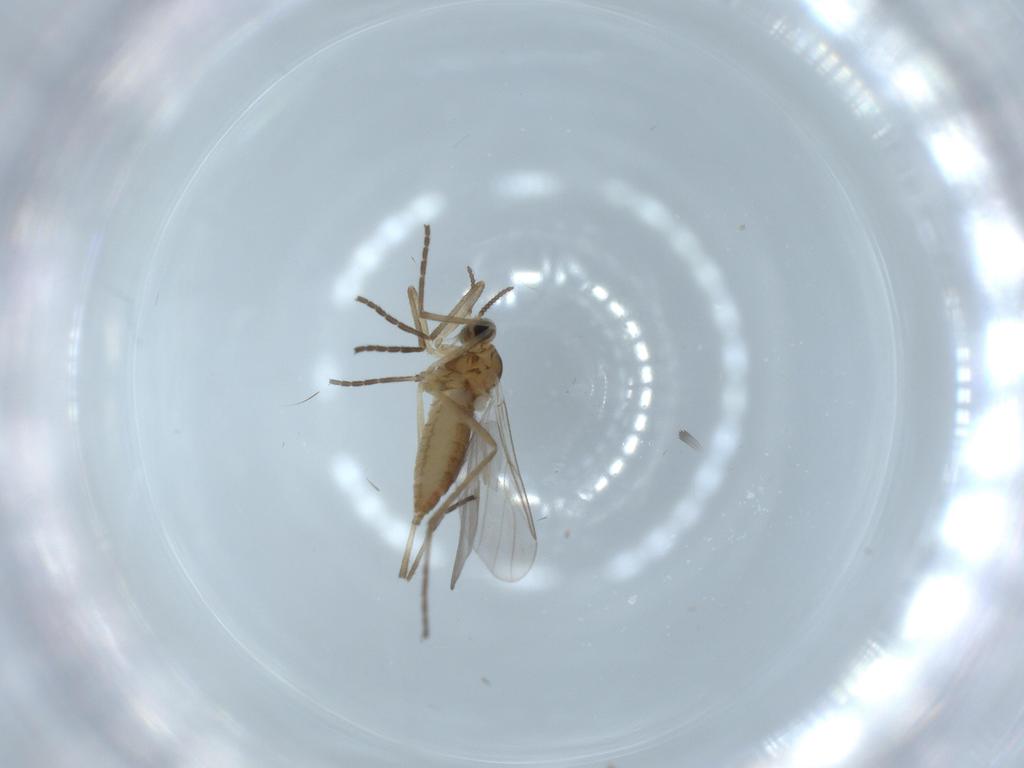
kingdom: Animalia
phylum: Arthropoda
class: Insecta
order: Diptera
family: Cecidomyiidae
